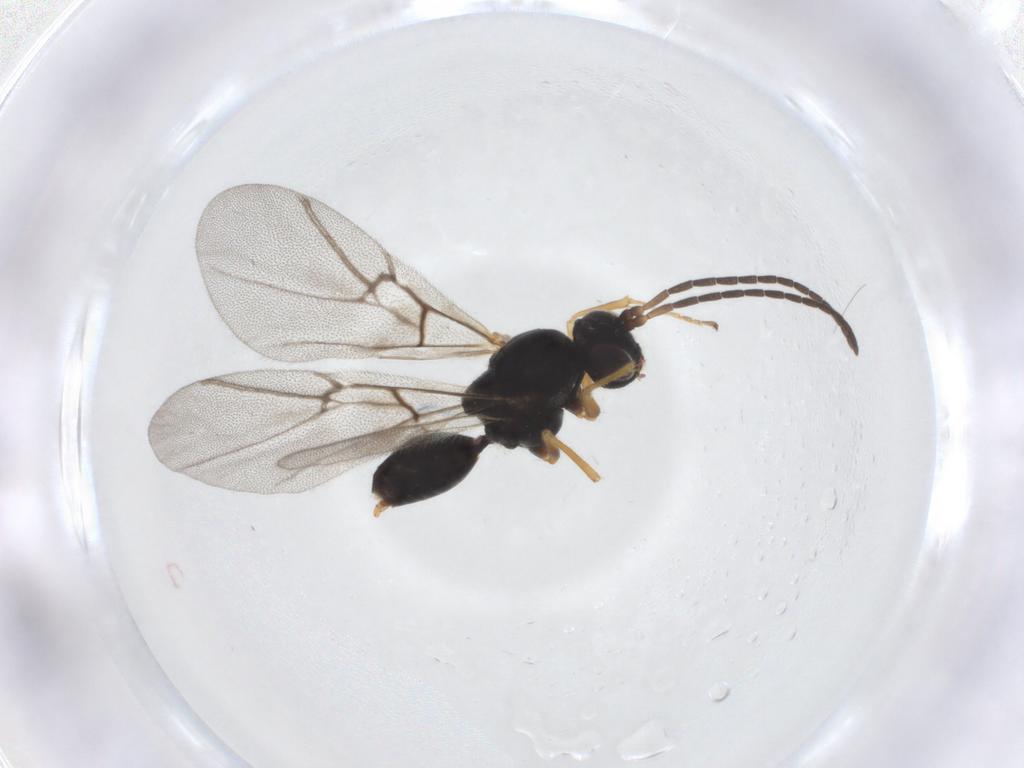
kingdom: Animalia
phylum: Arthropoda
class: Insecta
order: Hymenoptera
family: Cynipidae
